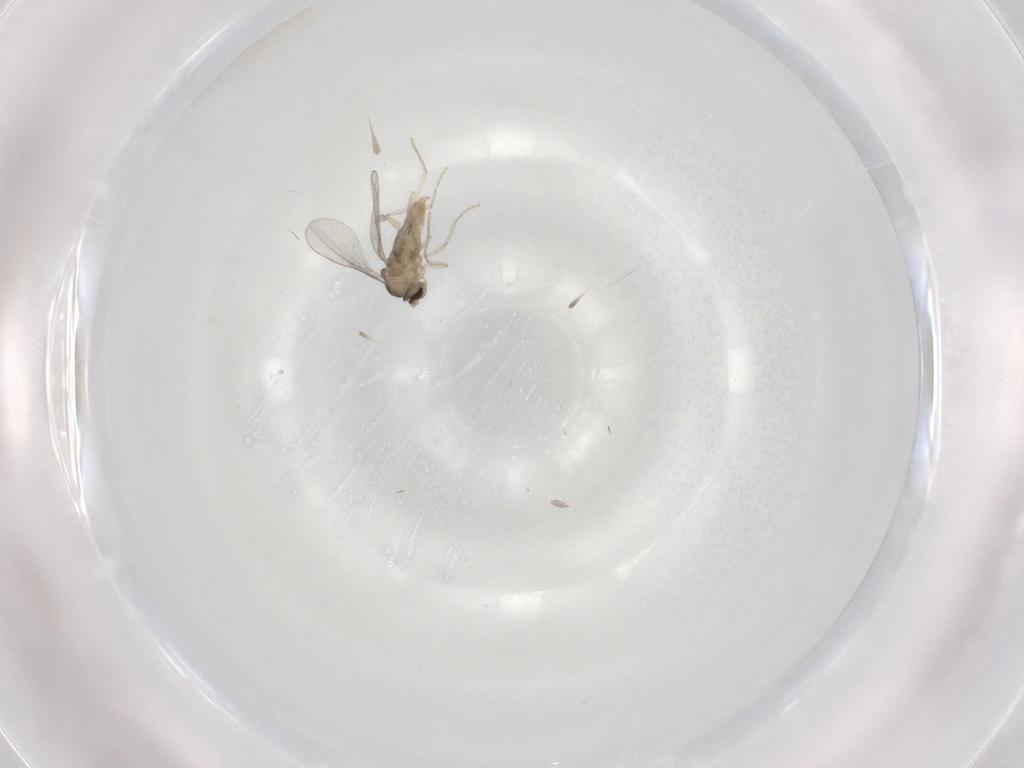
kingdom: Animalia
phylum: Arthropoda
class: Insecta
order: Diptera
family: Cecidomyiidae
